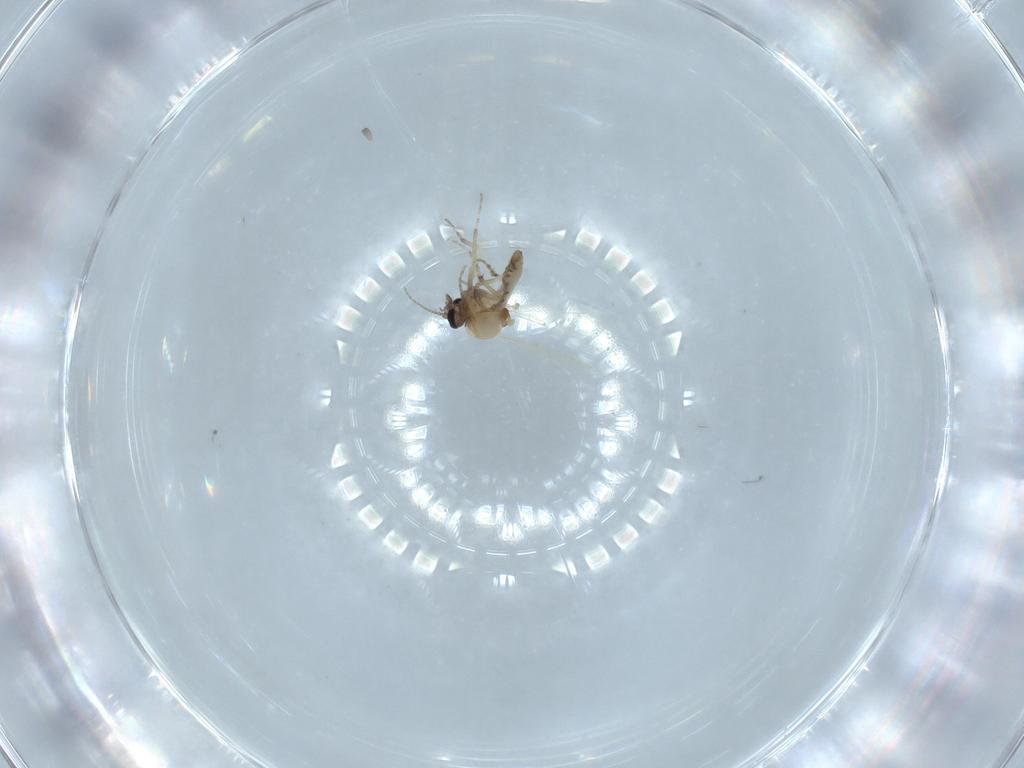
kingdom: Animalia
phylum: Arthropoda
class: Insecta
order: Diptera
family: Ceratopogonidae
